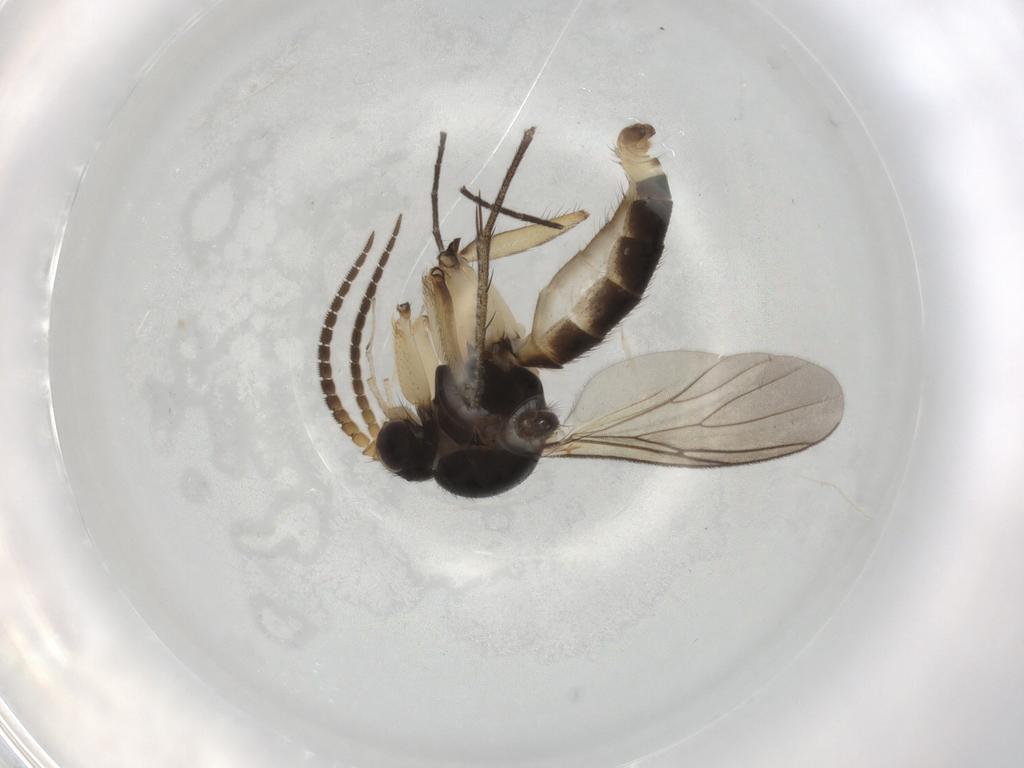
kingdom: Animalia
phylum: Arthropoda
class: Insecta
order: Diptera
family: Mycetophilidae
